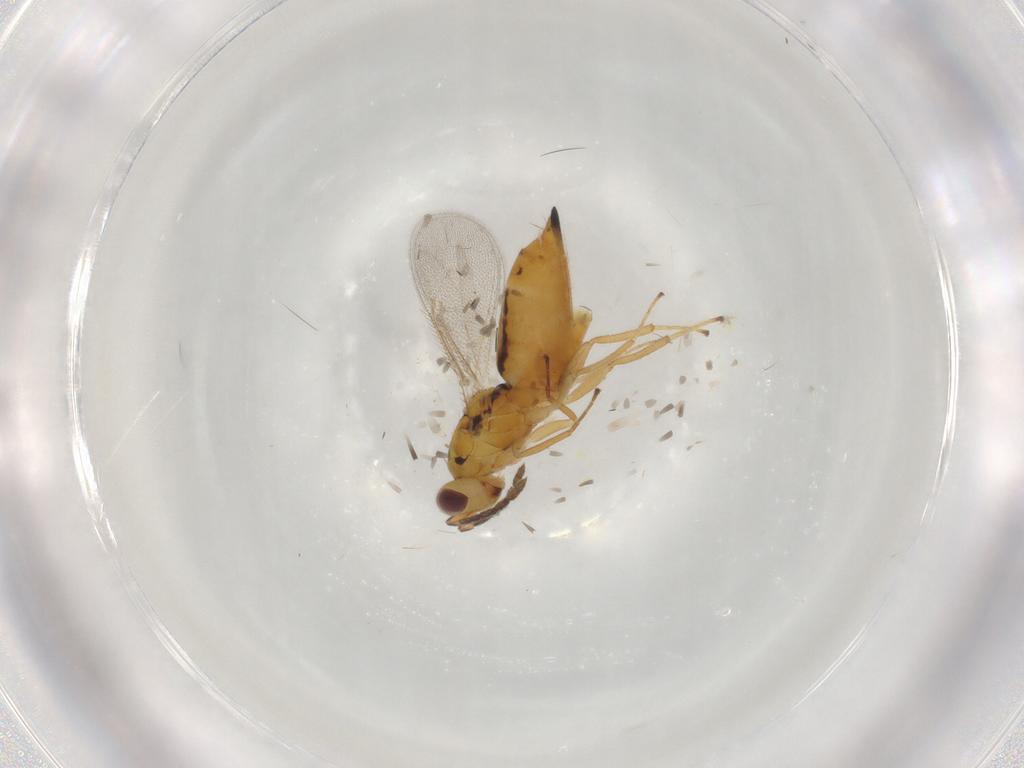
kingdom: Animalia
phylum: Arthropoda
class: Insecta
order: Hymenoptera
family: Eulophidae
